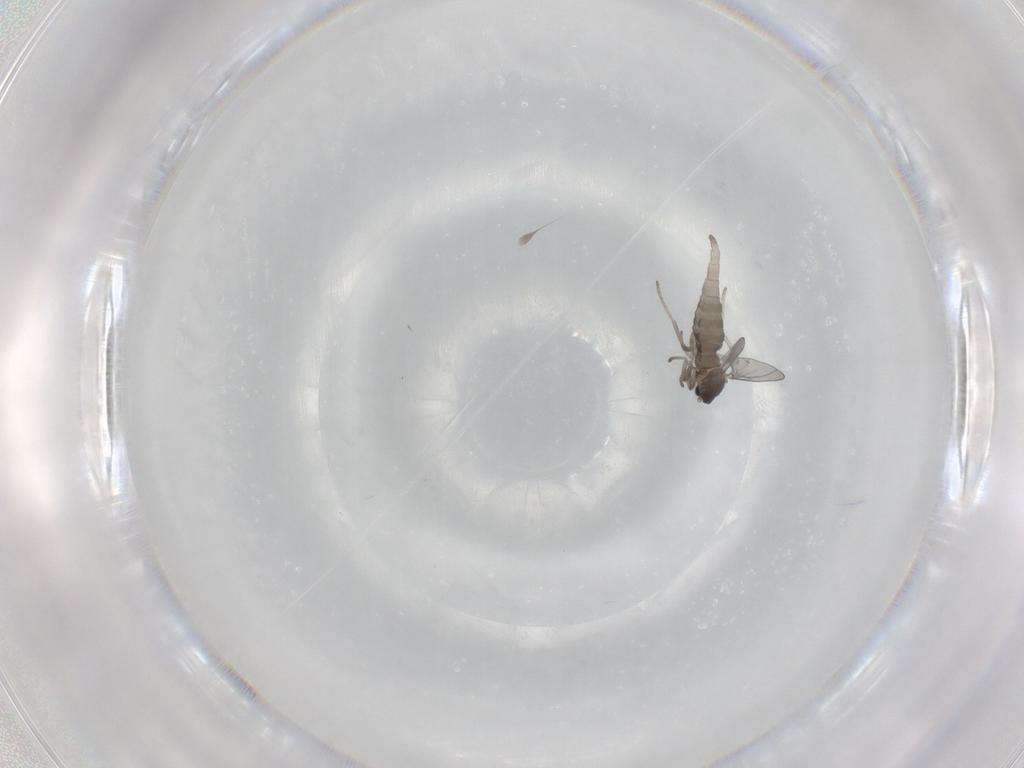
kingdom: Animalia
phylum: Arthropoda
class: Insecta
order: Diptera
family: Cecidomyiidae
